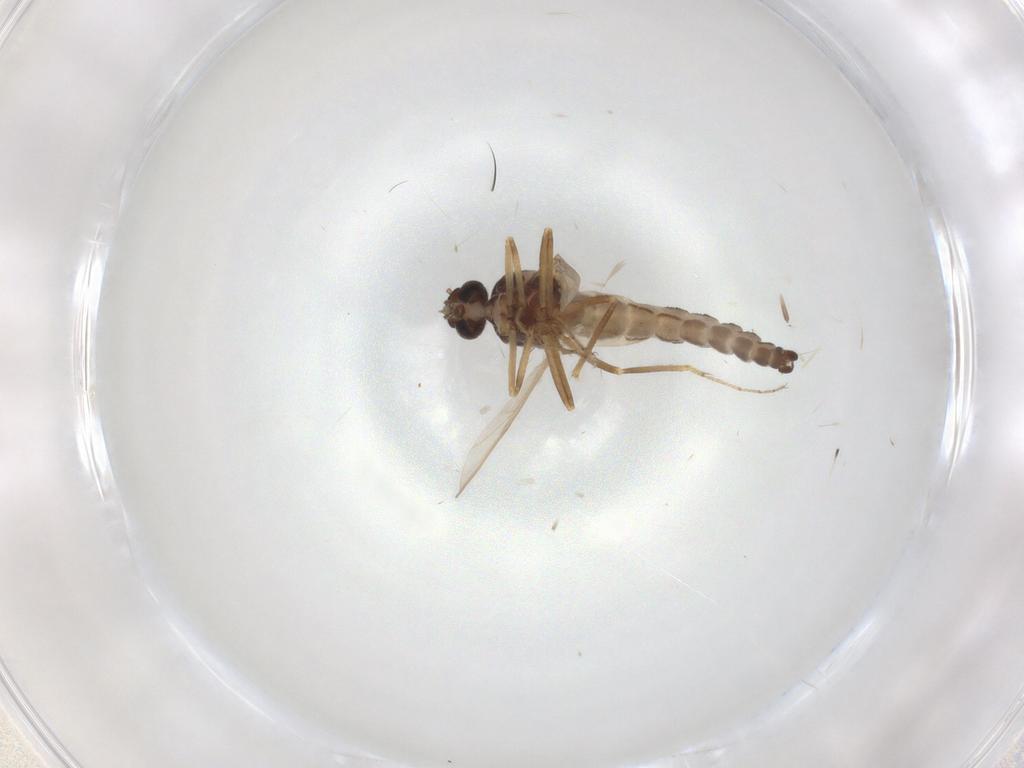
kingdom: Animalia
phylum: Arthropoda
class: Insecta
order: Diptera
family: Ceratopogonidae
